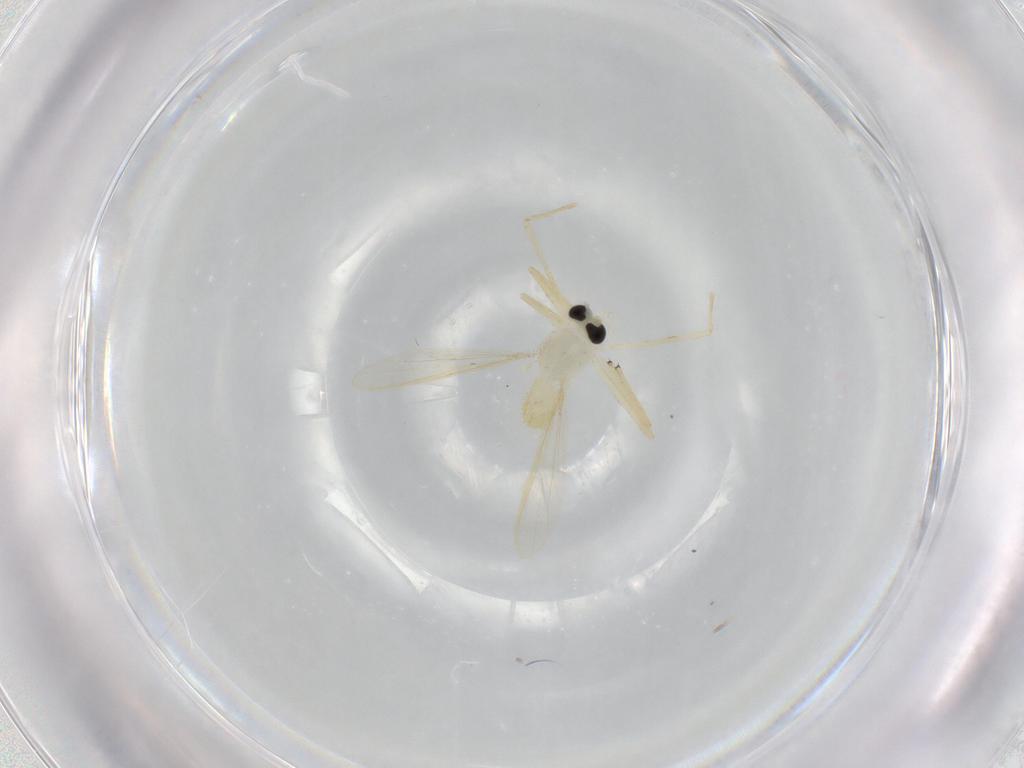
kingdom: Animalia
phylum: Arthropoda
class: Insecta
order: Diptera
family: Chironomidae
